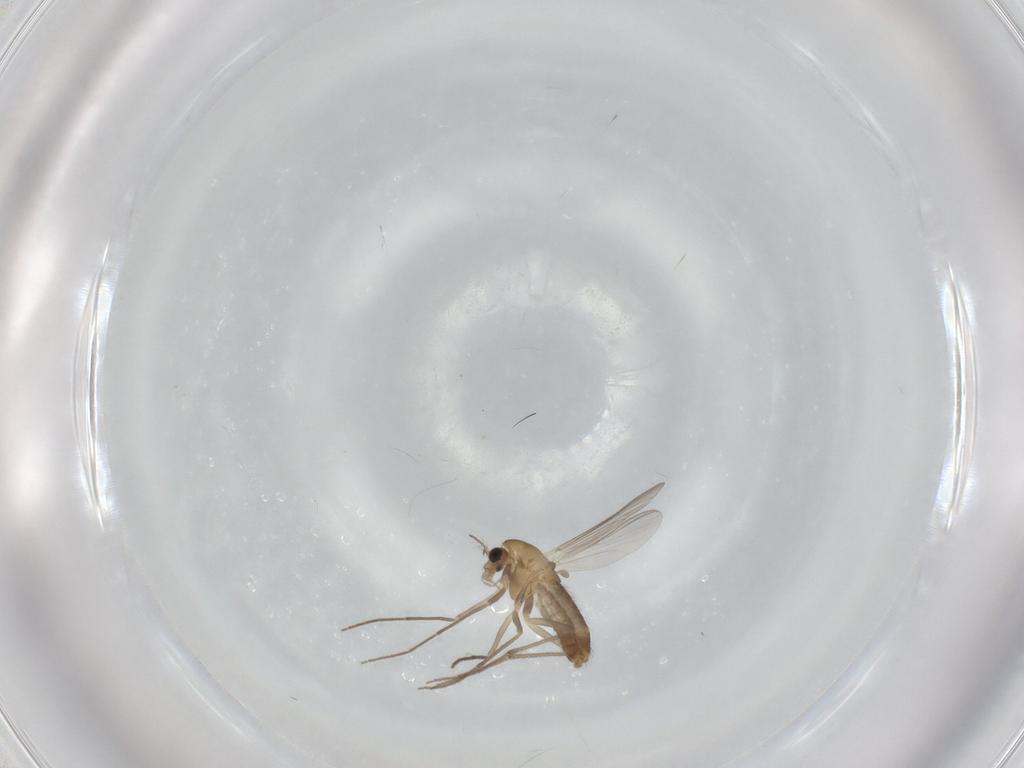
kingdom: Animalia
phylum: Arthropoda
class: Insecta
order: Diptera
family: Chironomidae
